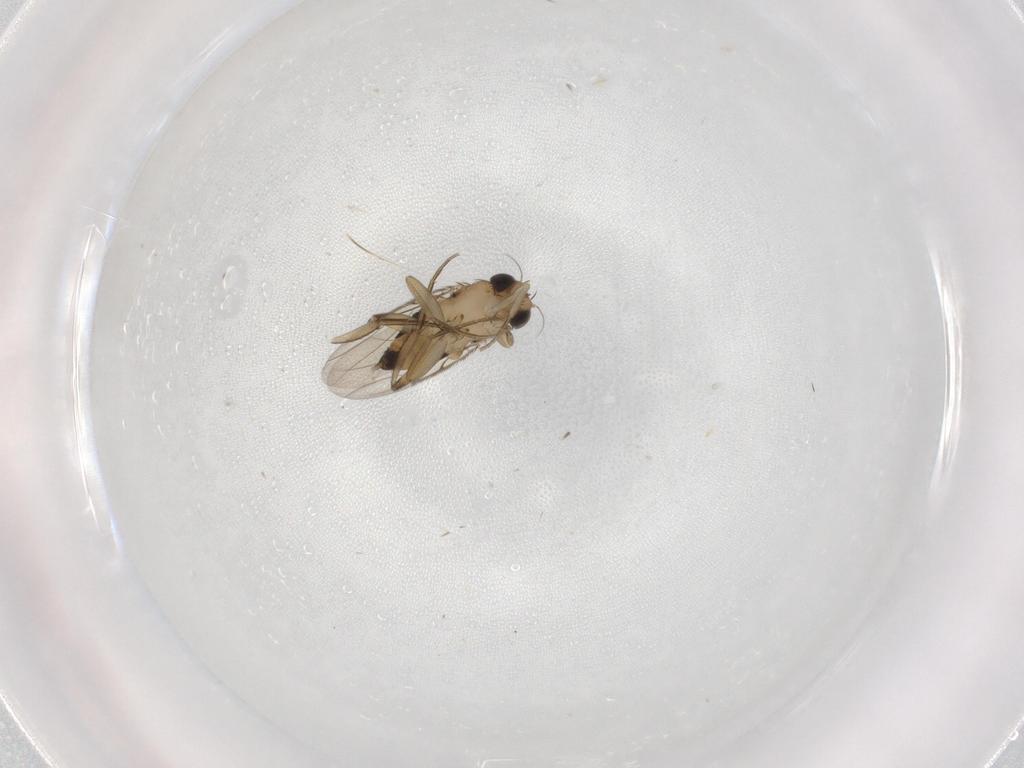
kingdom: Animalia
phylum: Arthropoda
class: Insecta
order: Diptera
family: Phoridae
